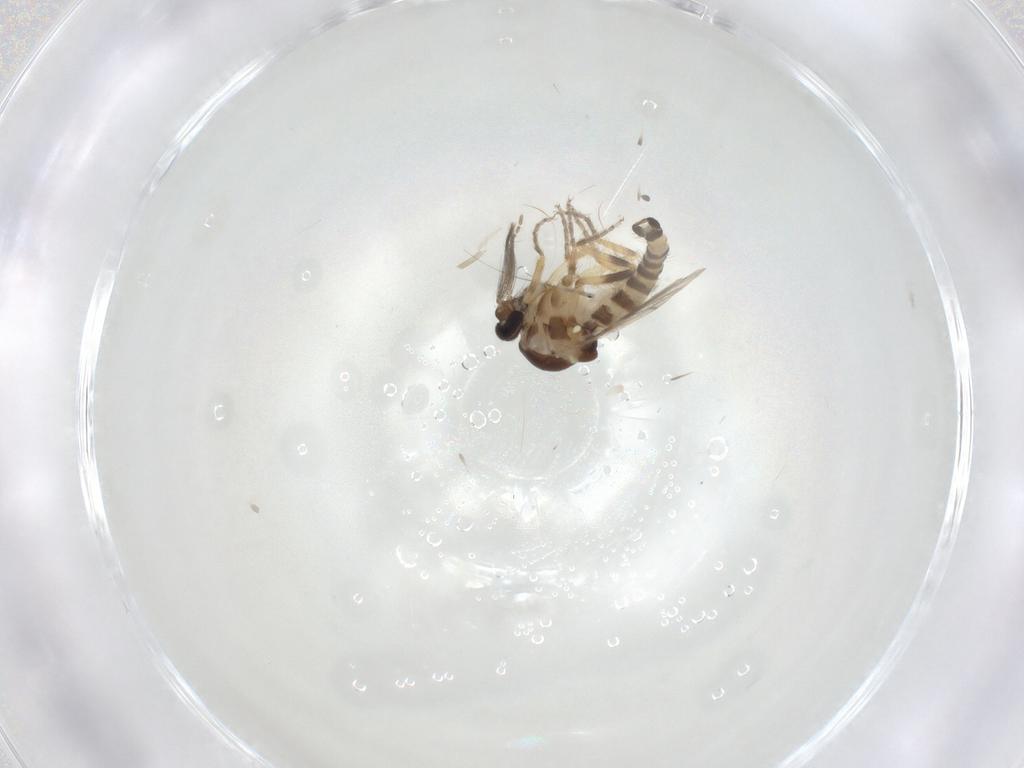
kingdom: Animalia
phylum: Arthropoda
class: Insecta
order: Diptera
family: Ceratopogonidae
